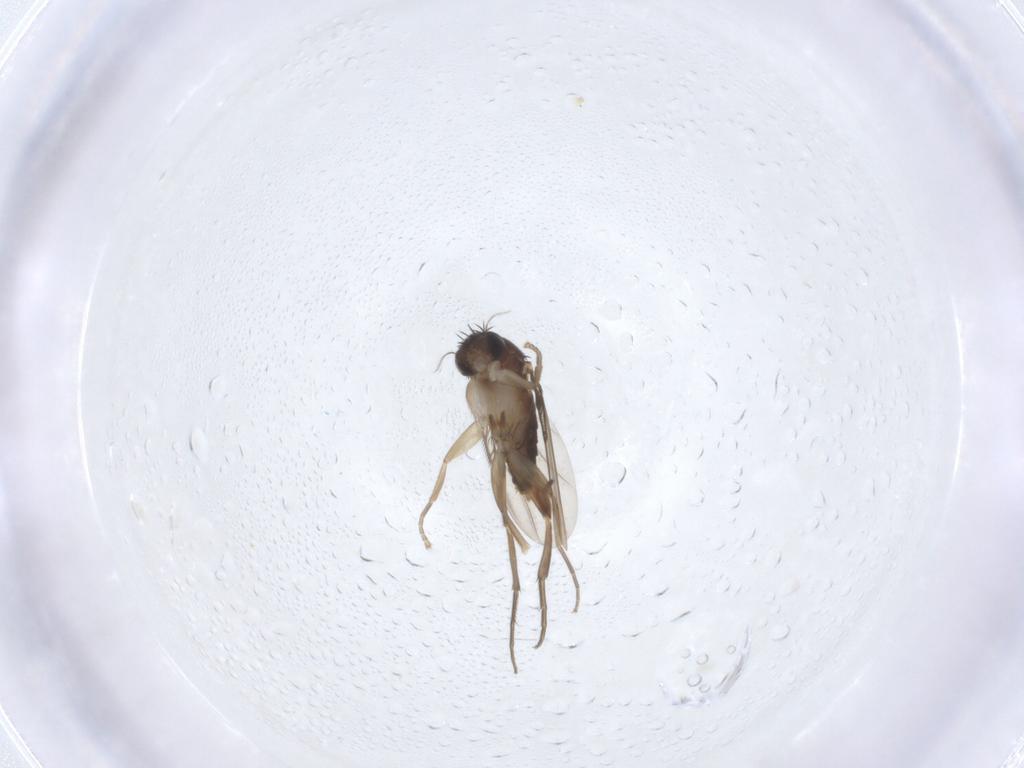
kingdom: Animalia
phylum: Arthropoda
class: Insecta
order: Diptera
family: Phoridae
